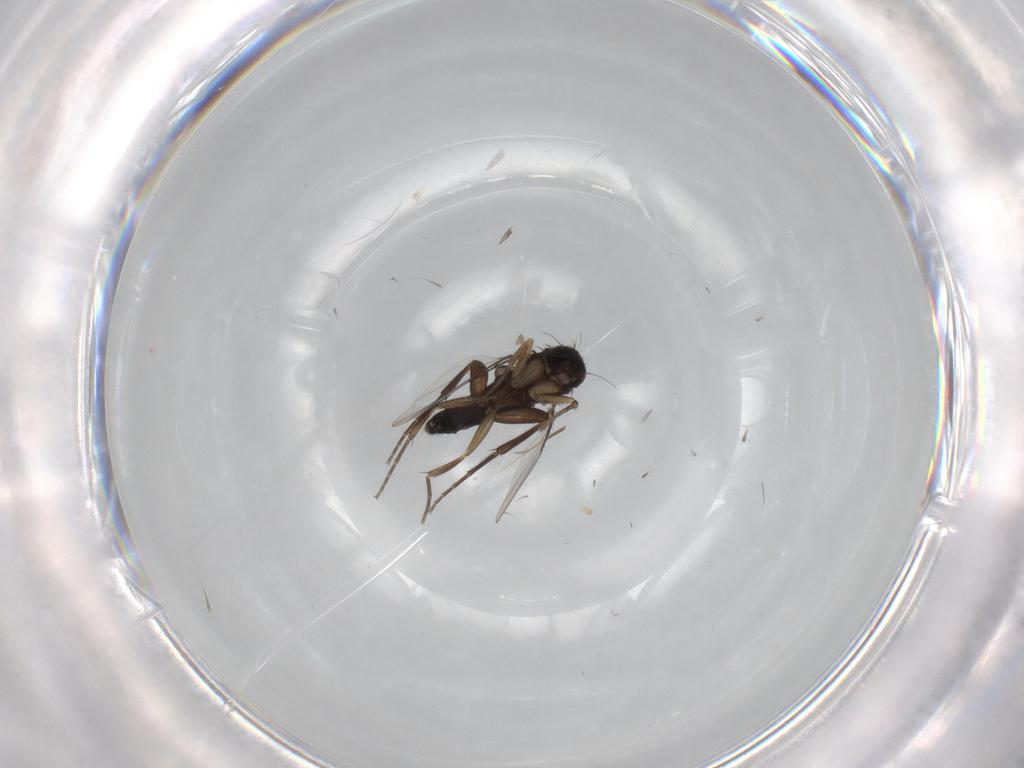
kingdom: Animalia
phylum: Arthropoda
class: Insecta
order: Diptera
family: Phoridae
